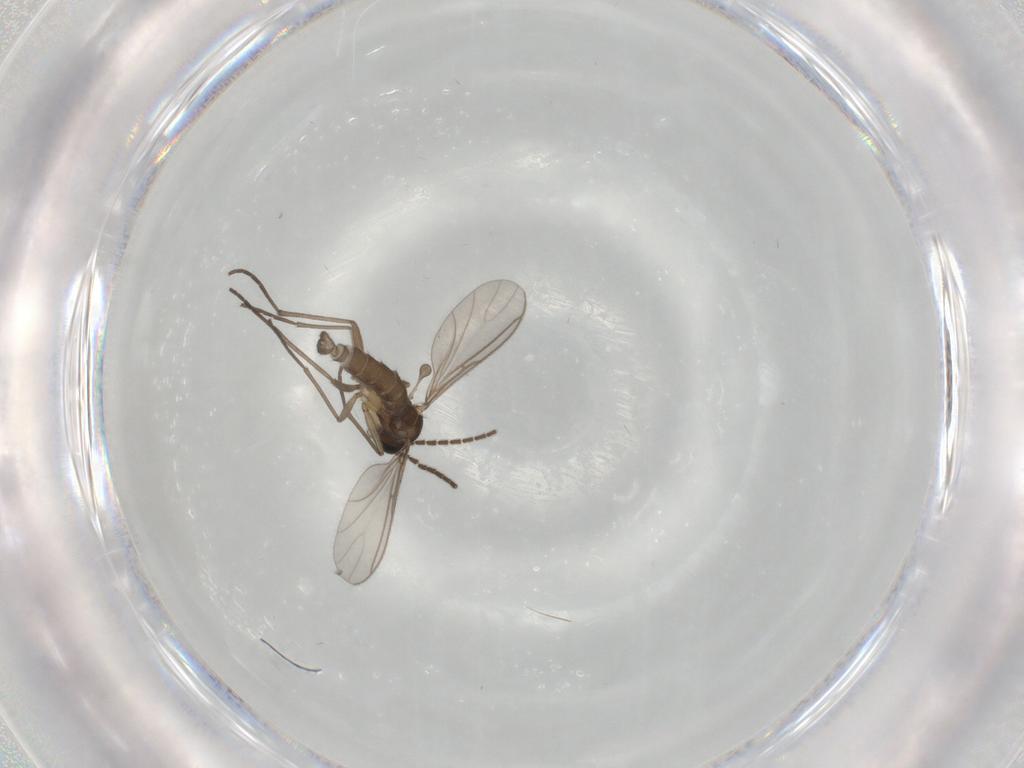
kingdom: Animalia
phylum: Arthropoda
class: Insecta
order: Diptera
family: Sciaridae
